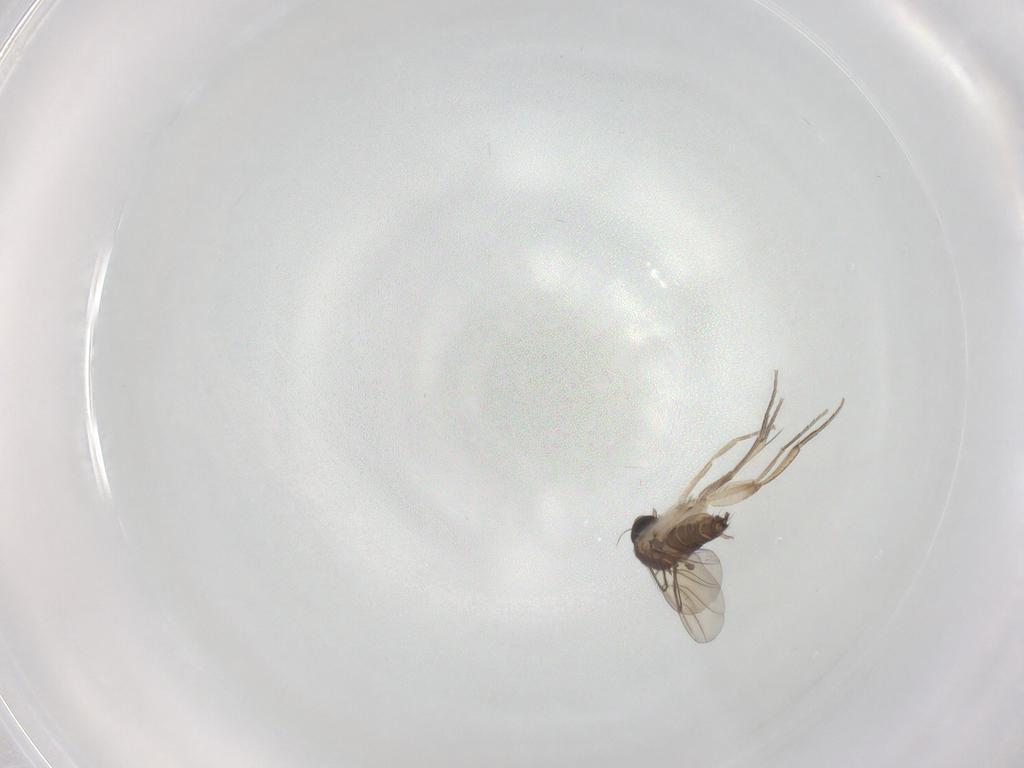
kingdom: Animalia
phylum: Arthropoda
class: Insecta
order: Diptera
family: Phoridae
